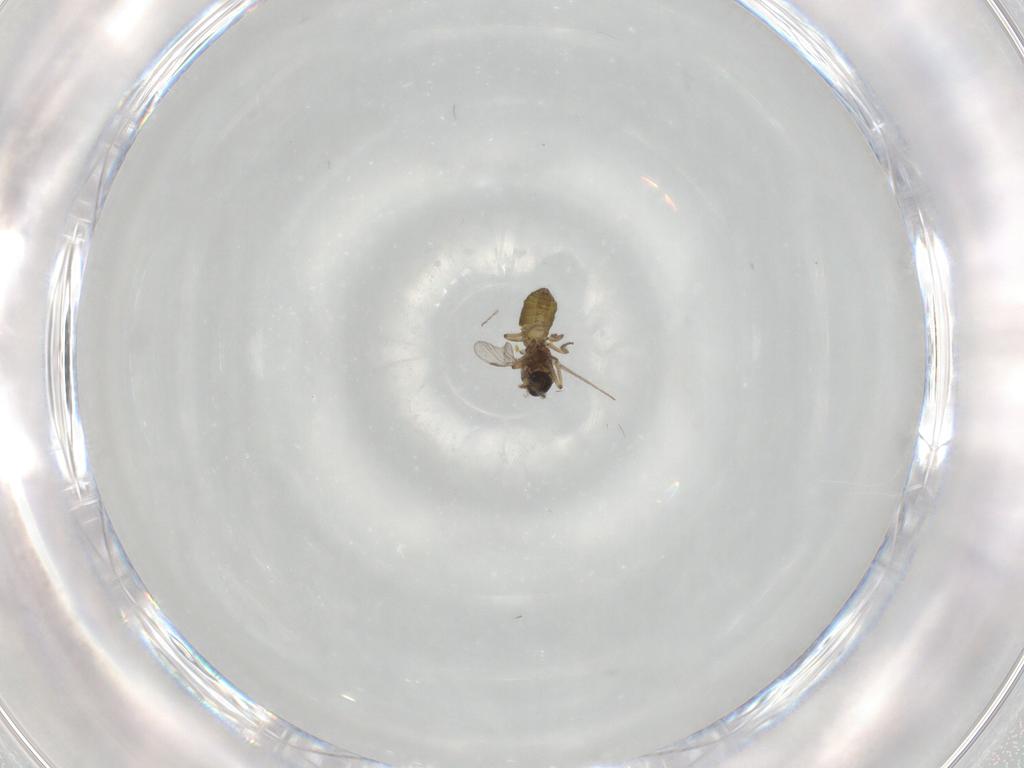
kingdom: Animalia
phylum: Arthropoda
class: Insecta
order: Diptera
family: Ceratopogonidae
